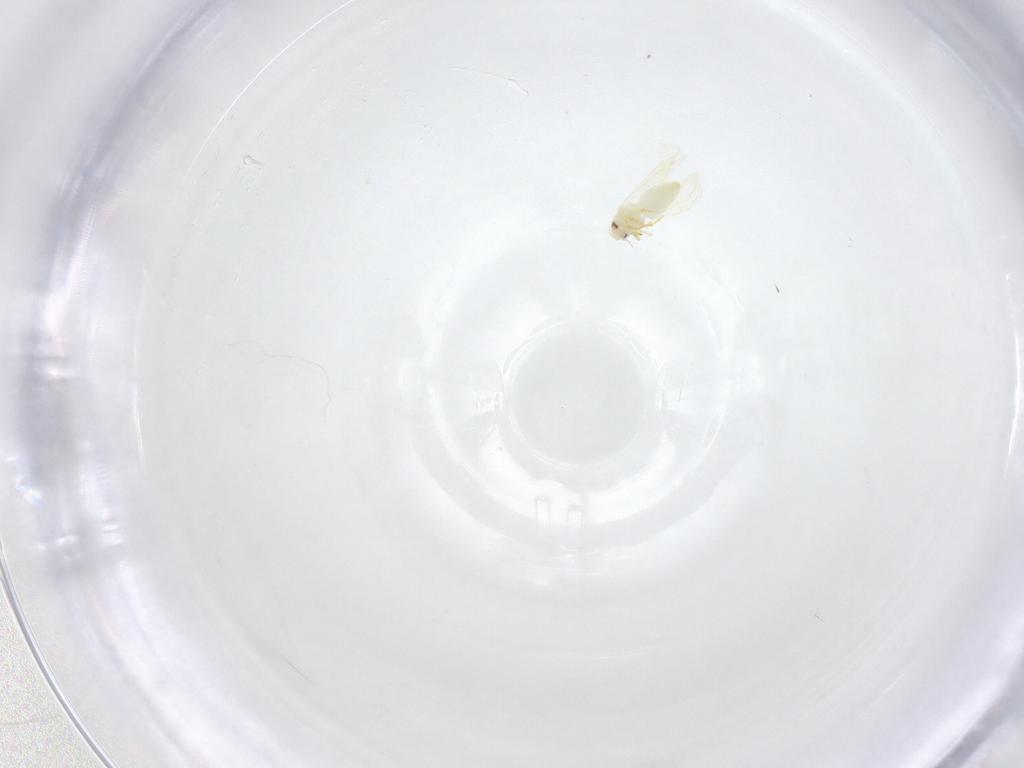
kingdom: Animalia
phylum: Arthropoda
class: Insecta
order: Hemiptera
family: Aleyrodidae
